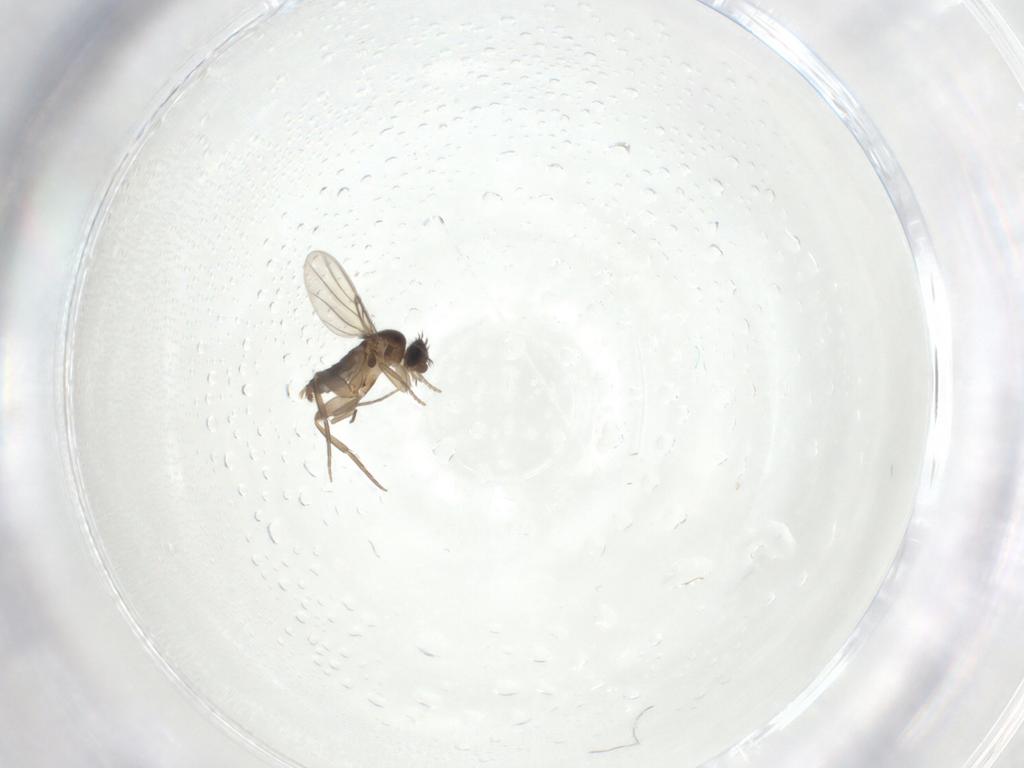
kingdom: Animalia
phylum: Arthropoda
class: Insecta
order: Diptera
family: Phoridae
